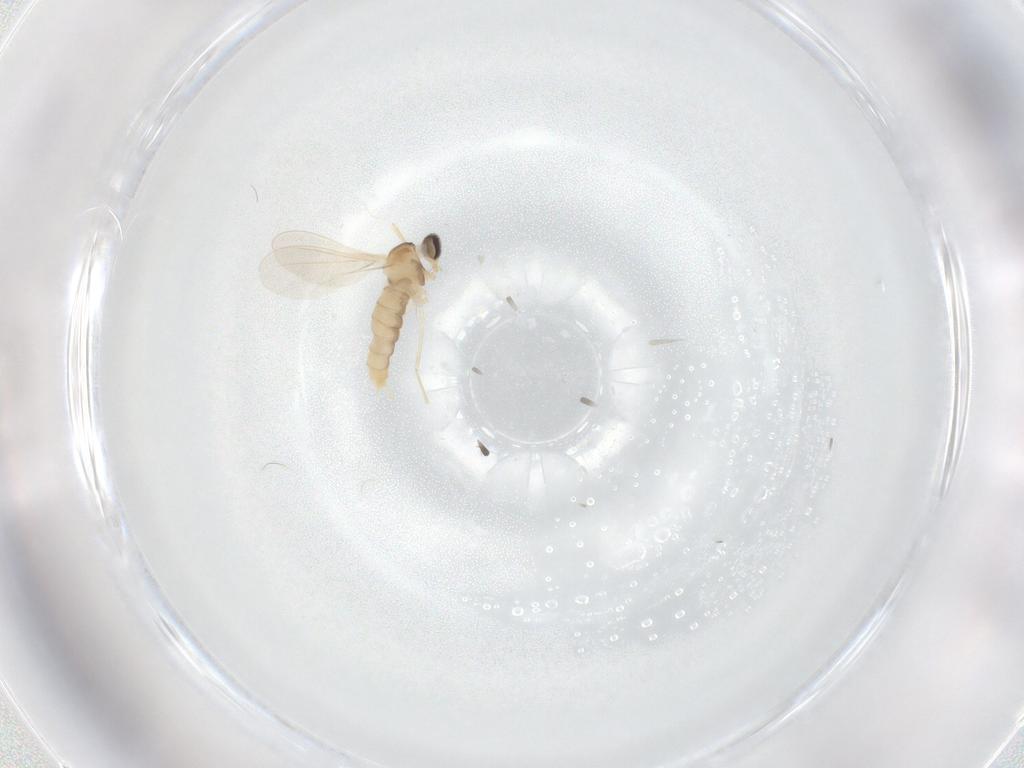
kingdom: Animalia
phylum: Arthropoda
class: Insecta
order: Diptera
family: Cecidomyiidae
